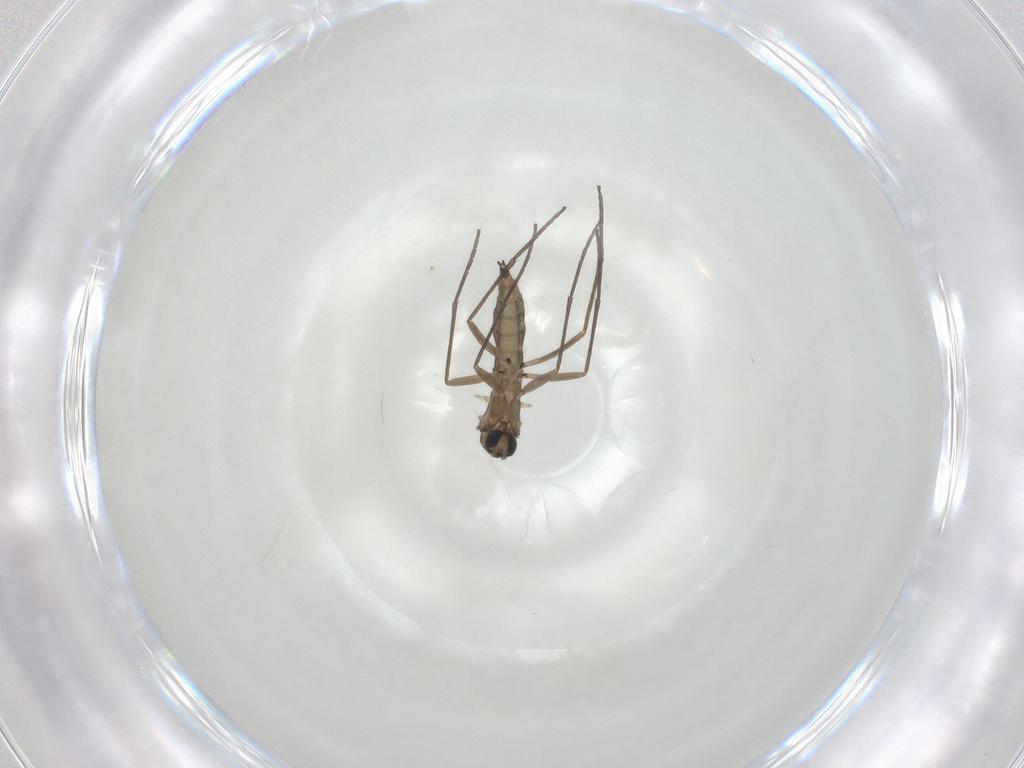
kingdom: Animalia
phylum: Arthropoda
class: Insecta
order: Diptera
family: Sciaridae
